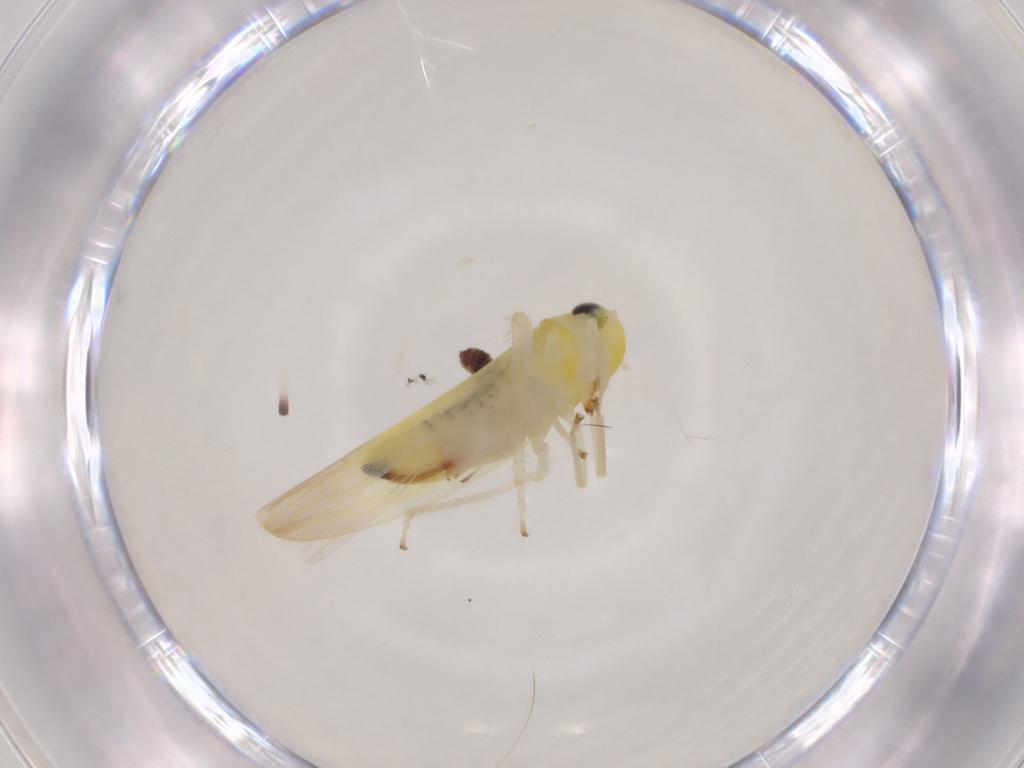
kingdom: Animalia
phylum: Arthropoda
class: Insecta
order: Hemiptera
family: Cicadellidae
